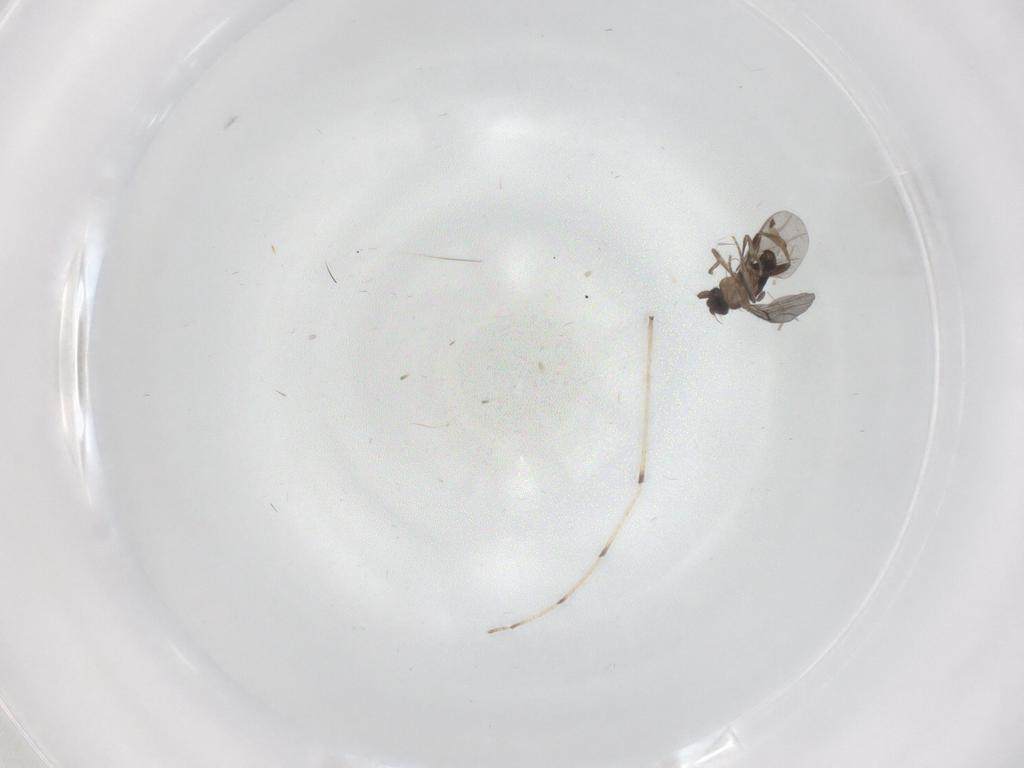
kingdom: Animalia
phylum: Arthropoda
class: Insecta
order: Diptera
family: Chironomidae
